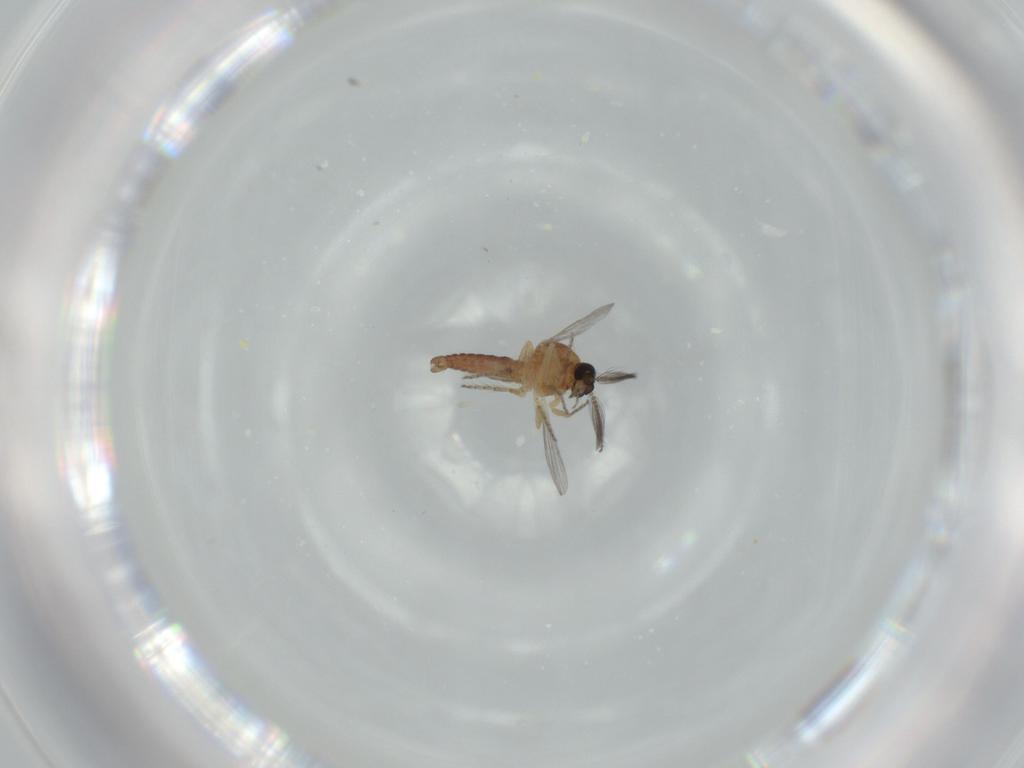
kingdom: Animalia
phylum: Arthropoda
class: Insecta
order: Diptera
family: Ceratopogonidae
